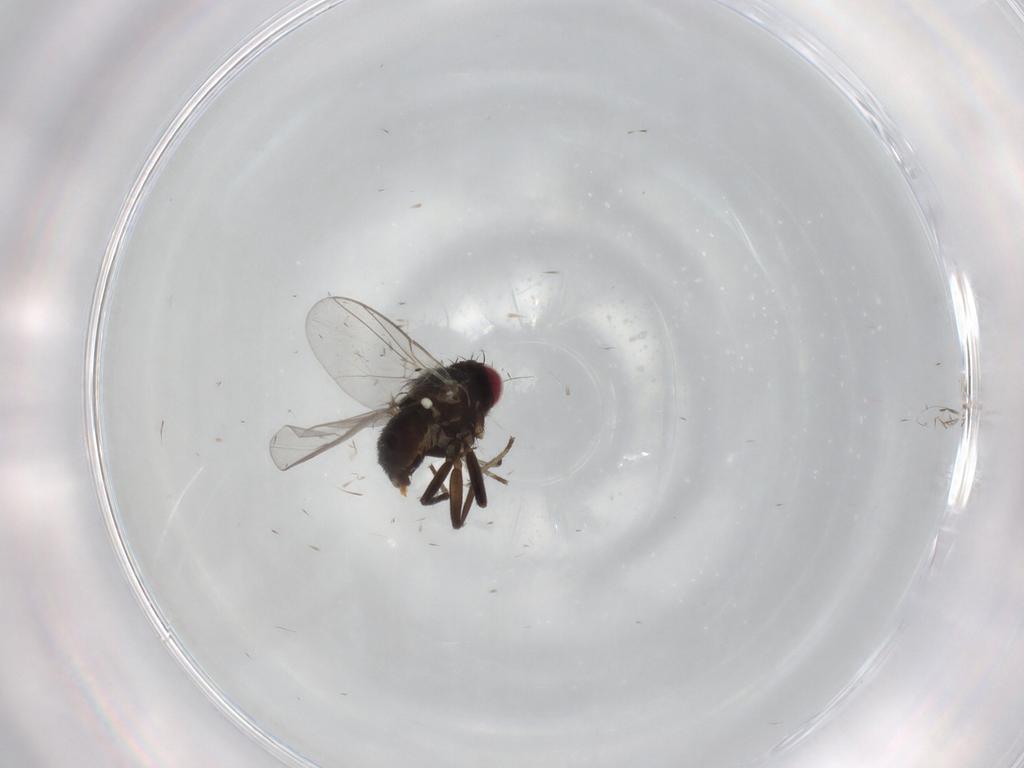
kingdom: Animalia
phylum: Arthropoda
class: Insecta
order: Diptera
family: Agromyzidae
